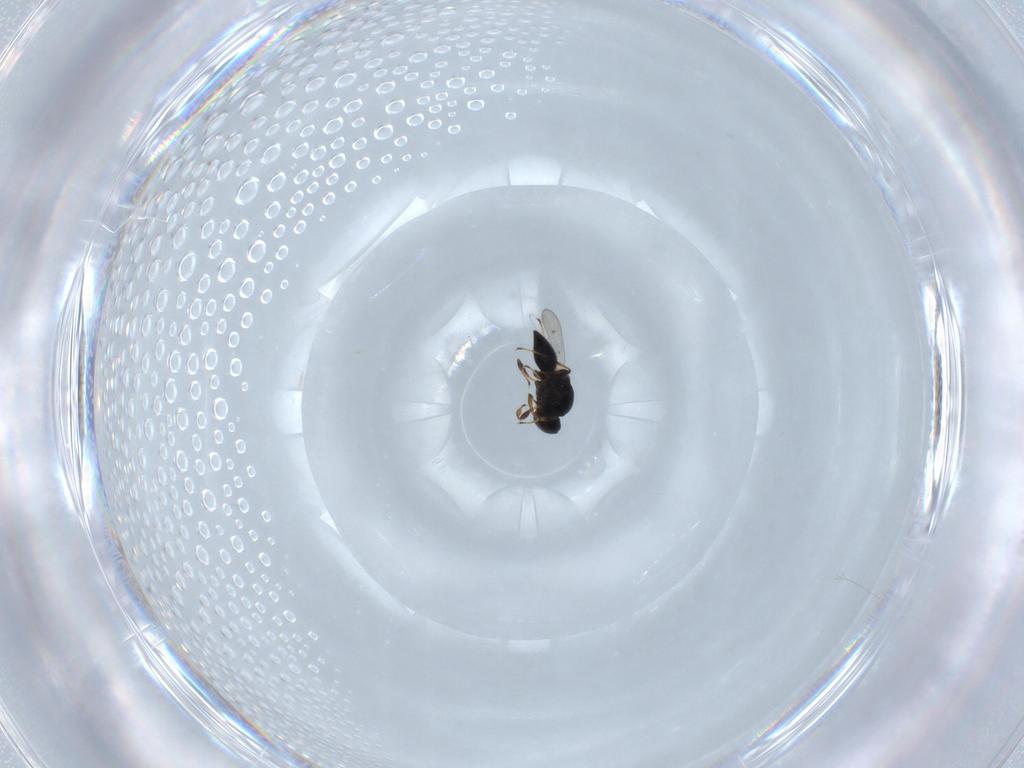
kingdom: Animalia
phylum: Arthropoda
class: Insecta
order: Hymenoptera
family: Platygastridae
